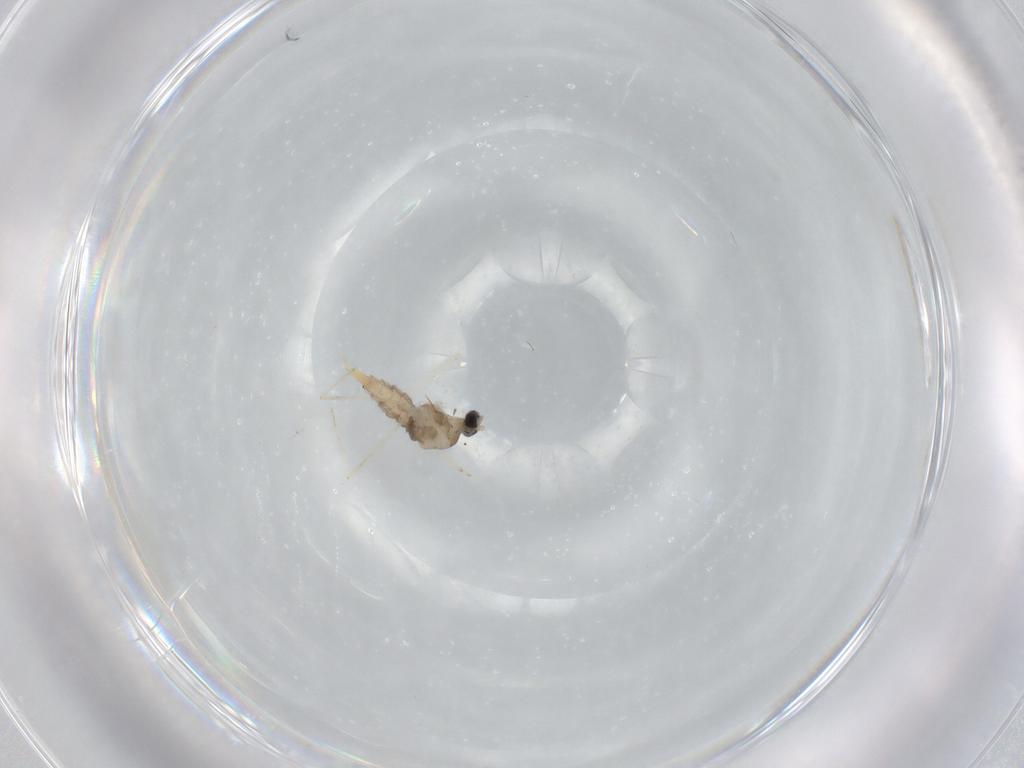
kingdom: Animalia
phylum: Arthropoda
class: Insecta
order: Diptera
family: Cecidomyiidae
